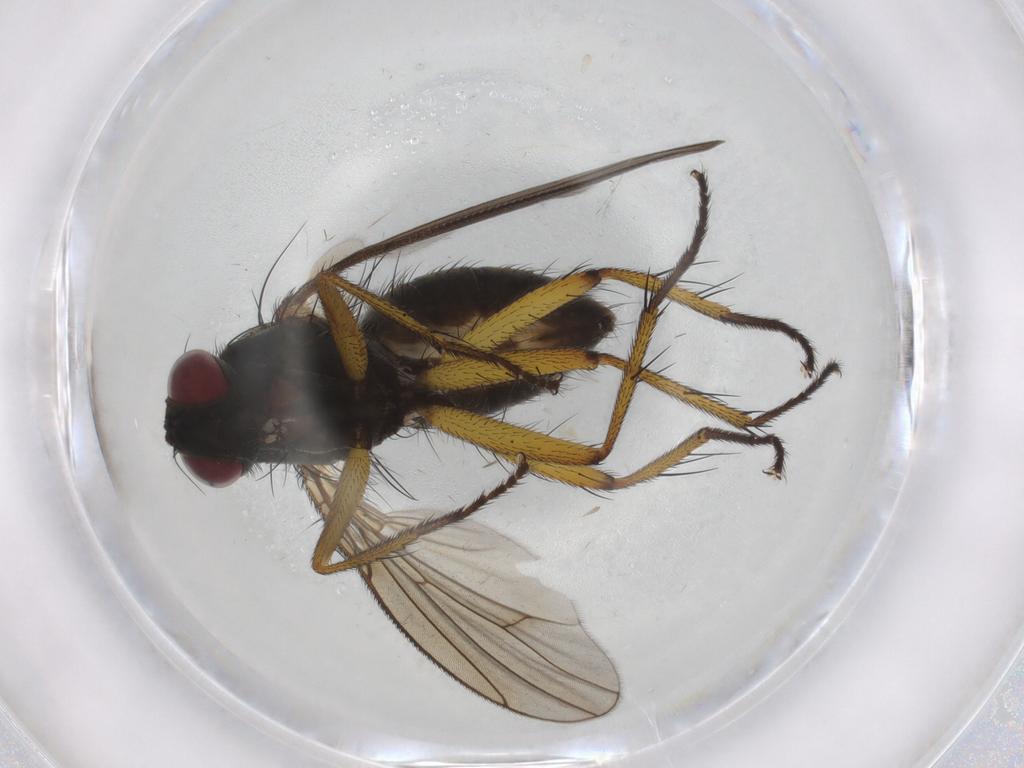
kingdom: Animalia
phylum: Arthropoda
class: Insecta
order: Diptera
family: Muscidae
